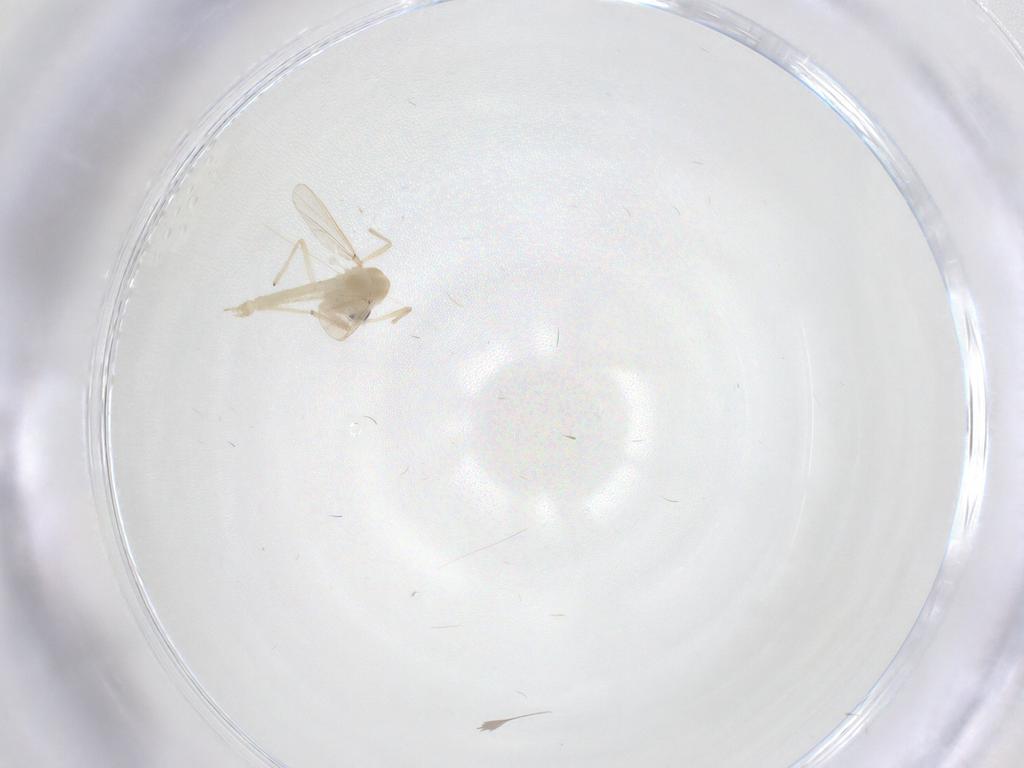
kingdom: Animalia
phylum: Arthropoda
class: Insecta
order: Diptera
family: Chironomidae
